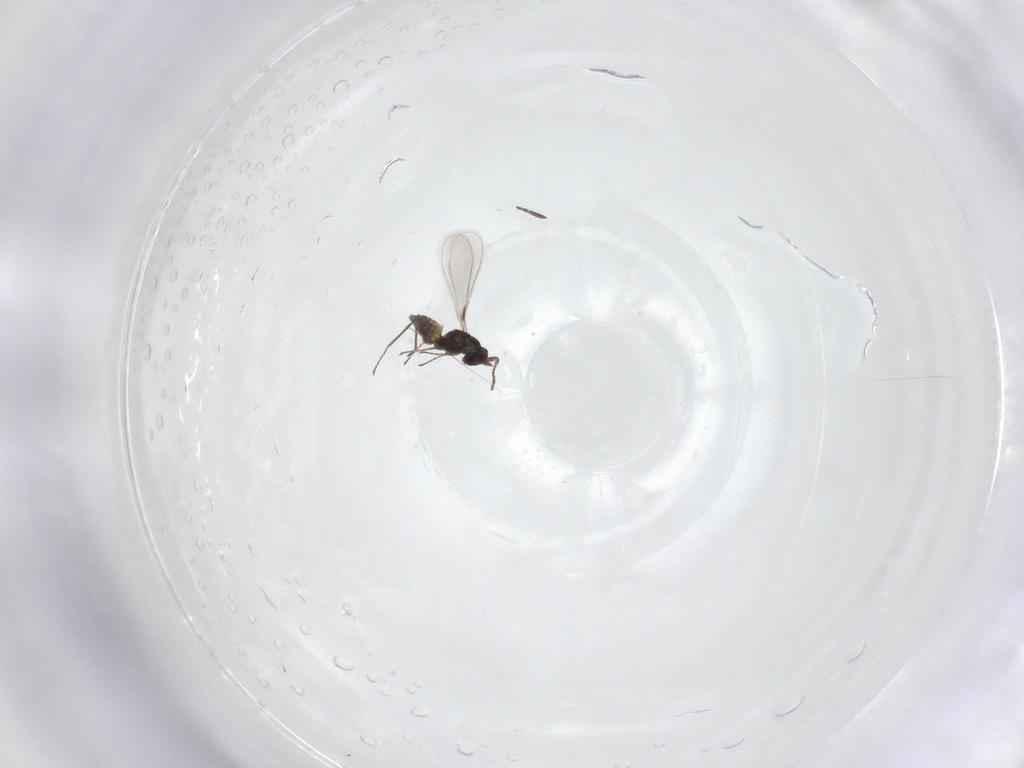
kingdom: Animalia
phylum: Arthropoda
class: Insecta
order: Hymenoptera
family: Mymaridae
